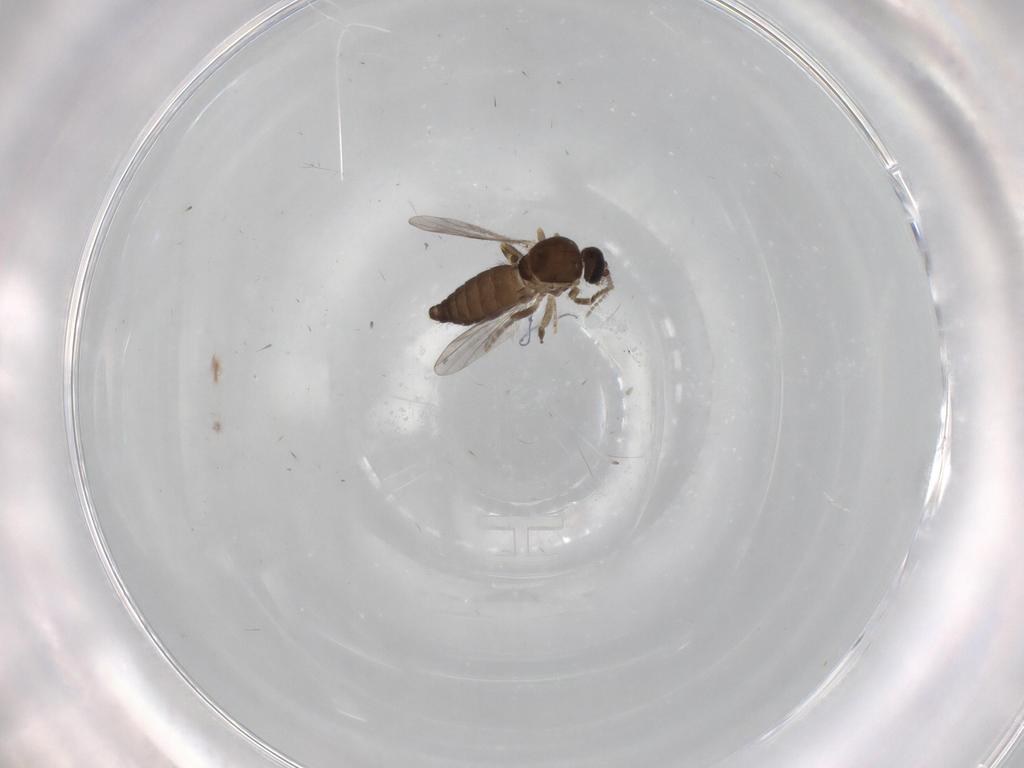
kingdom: Animalia
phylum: Arthropoda
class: Insecta
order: Diptera
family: Ceratopogonidae
